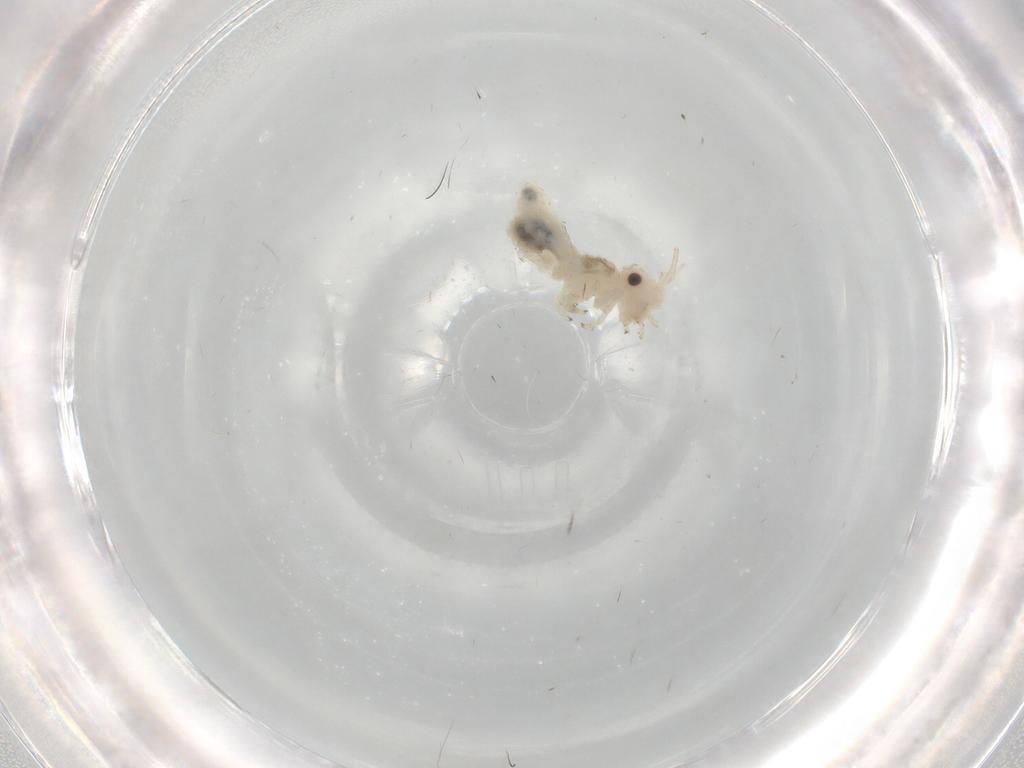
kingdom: Animalia
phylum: Arthropoda
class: Insecta
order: Psocodea
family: Caeciliusidae
